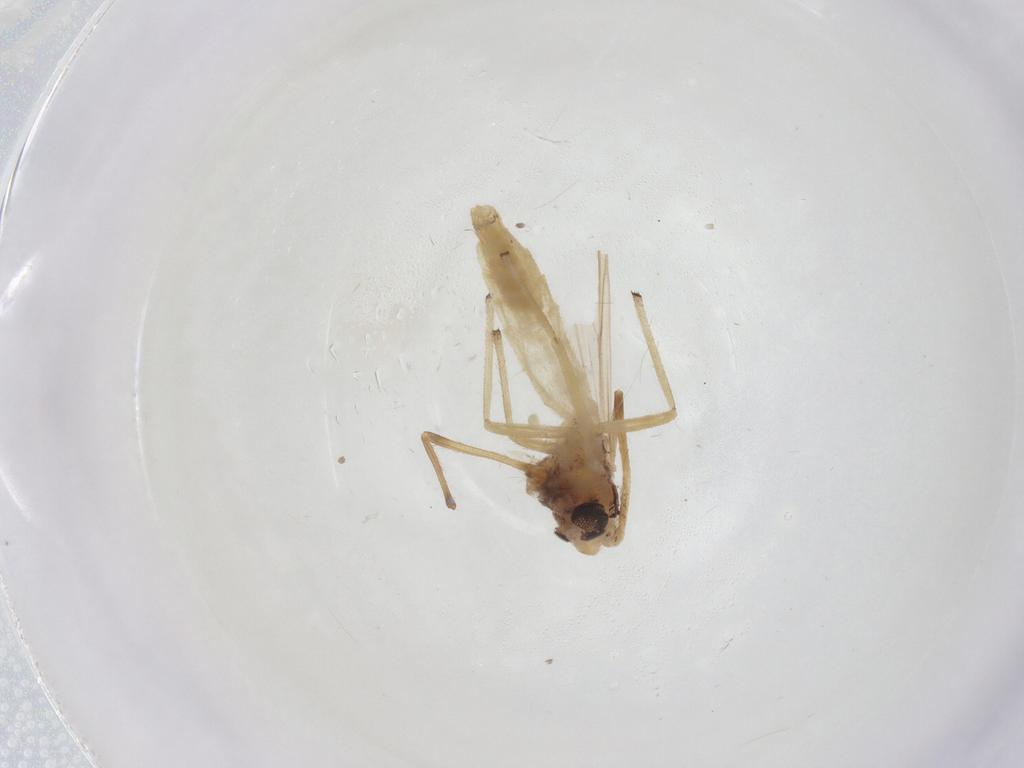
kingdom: Animalia
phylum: Arthropoda
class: Insecta
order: Diptera
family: Chironomidae
